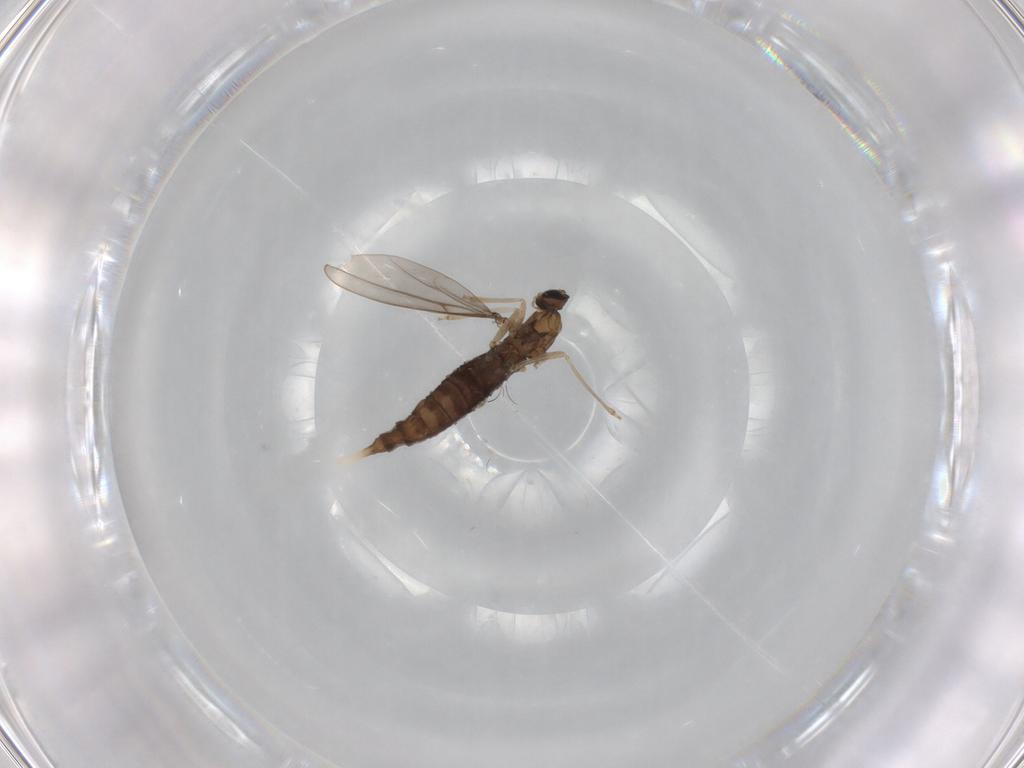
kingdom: Animalia
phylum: Arthropoda
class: Insecta
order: Diptera
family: Cecidomyiidae
